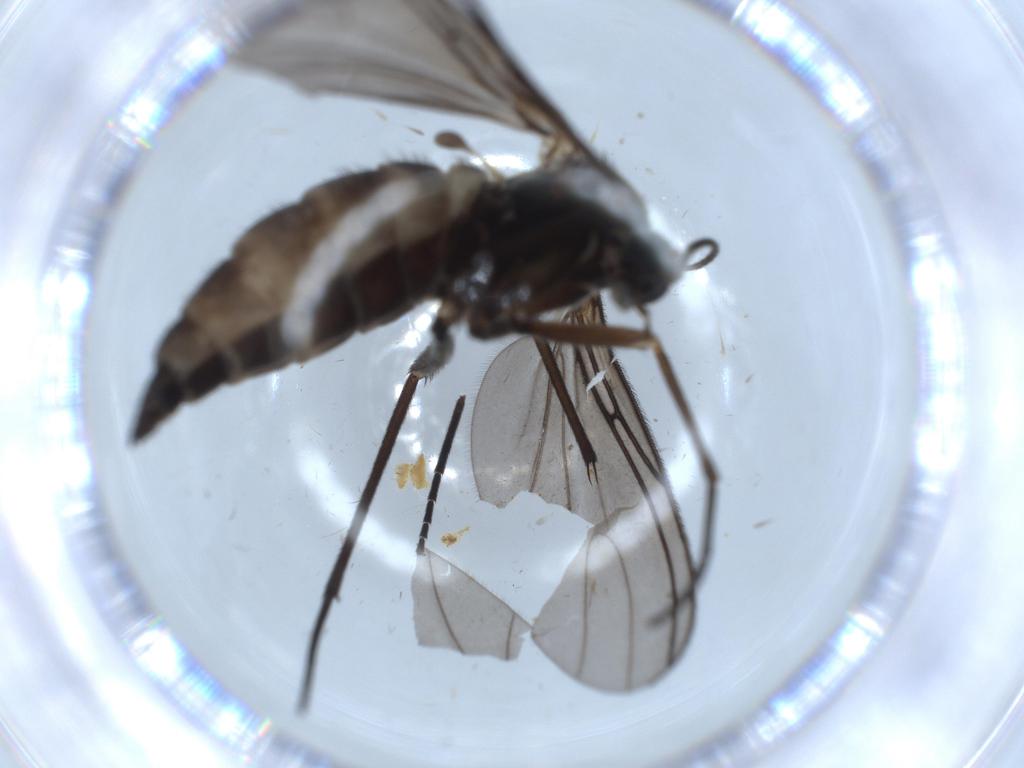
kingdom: Animalia
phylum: Arthropoda
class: Insecta
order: Diptera
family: Sciaridae
